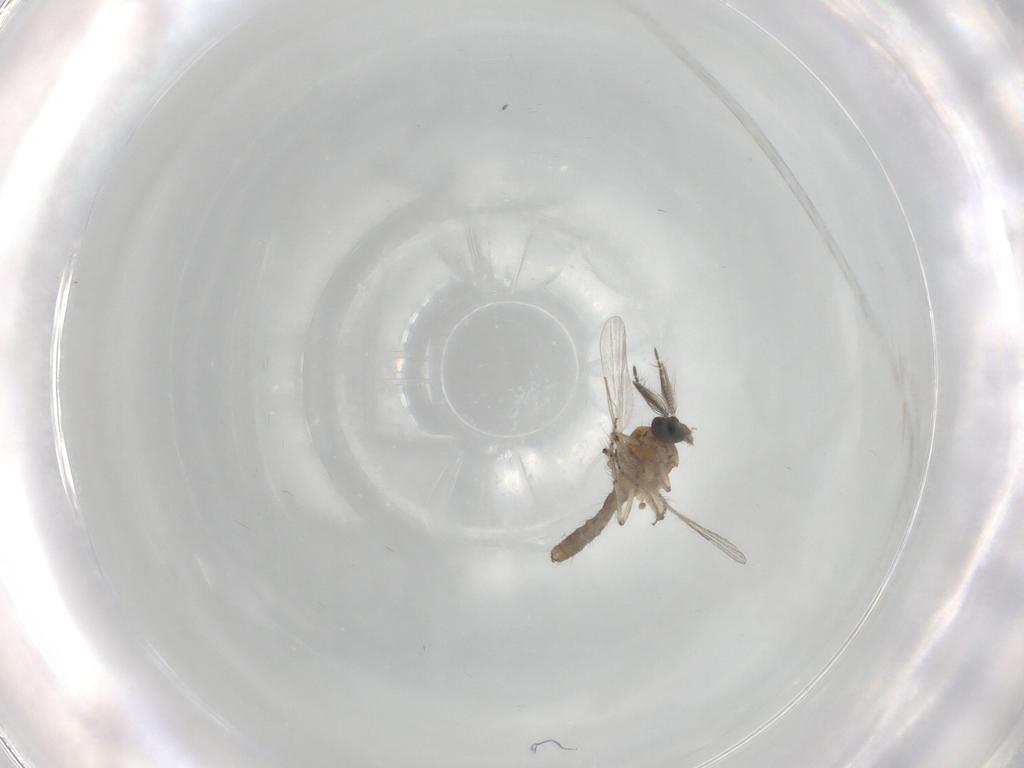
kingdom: Animalia
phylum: Arthropoda
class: Insecta
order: Diptera
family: Ceratopogonidae
